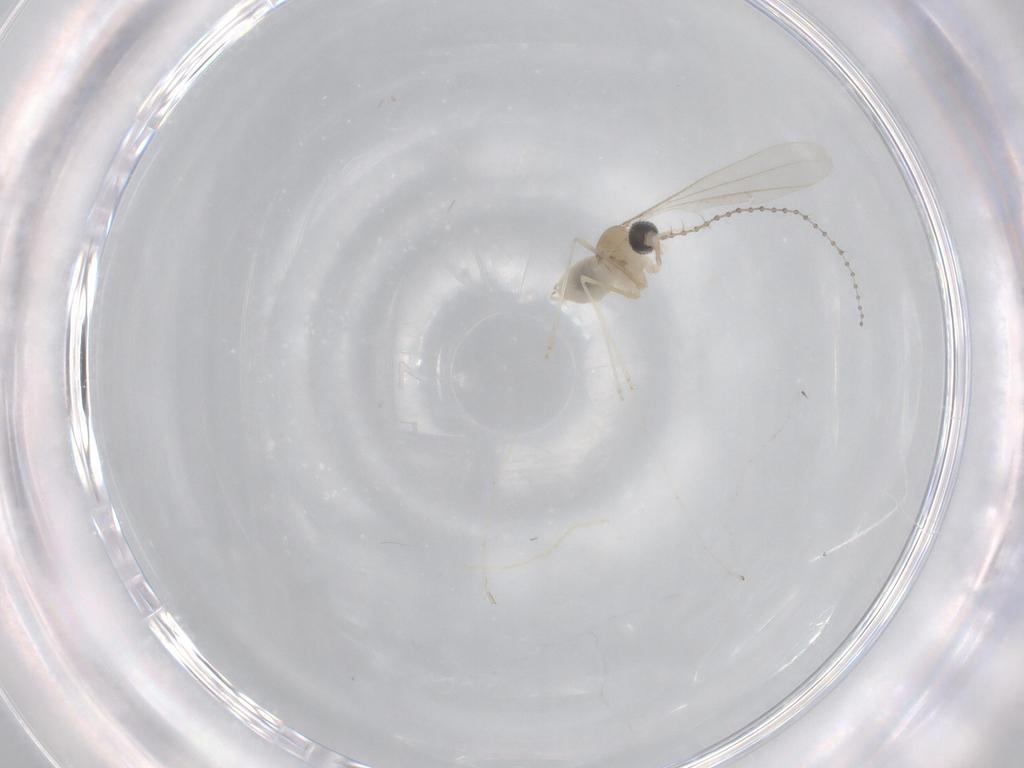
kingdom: Animalia
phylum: Arthropoda
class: Insecta
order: Diptera
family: Cecidomyiidae
